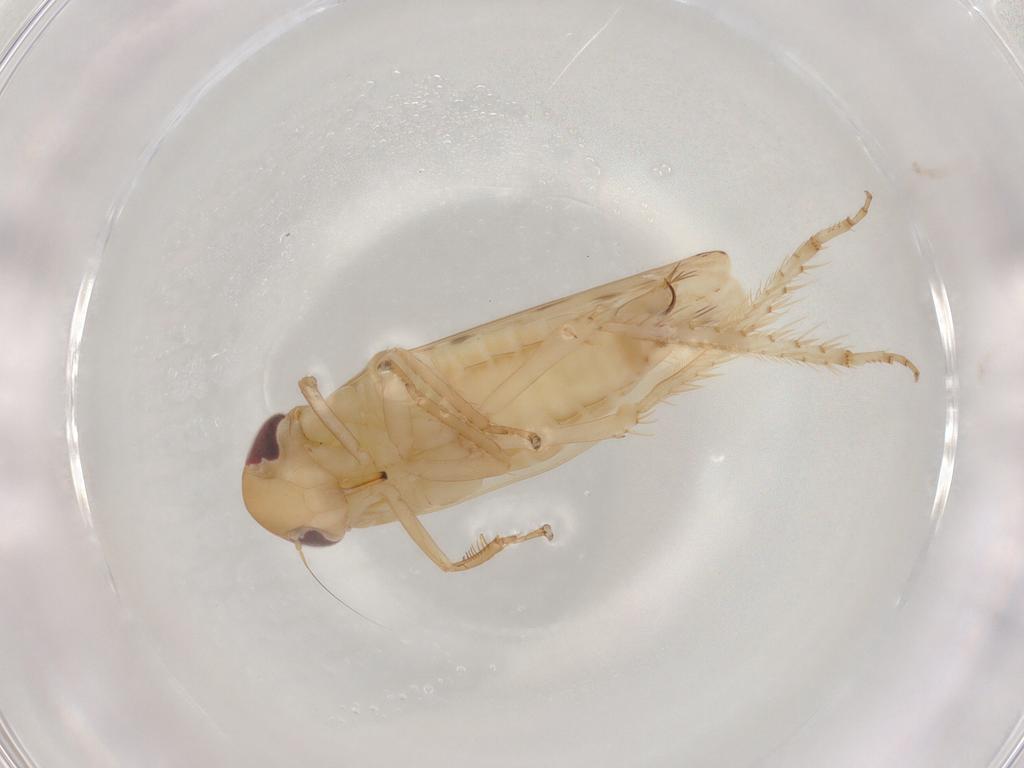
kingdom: Animalia
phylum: Arthropoda
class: Insecta
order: Hemiptera
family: Cicadellidae
